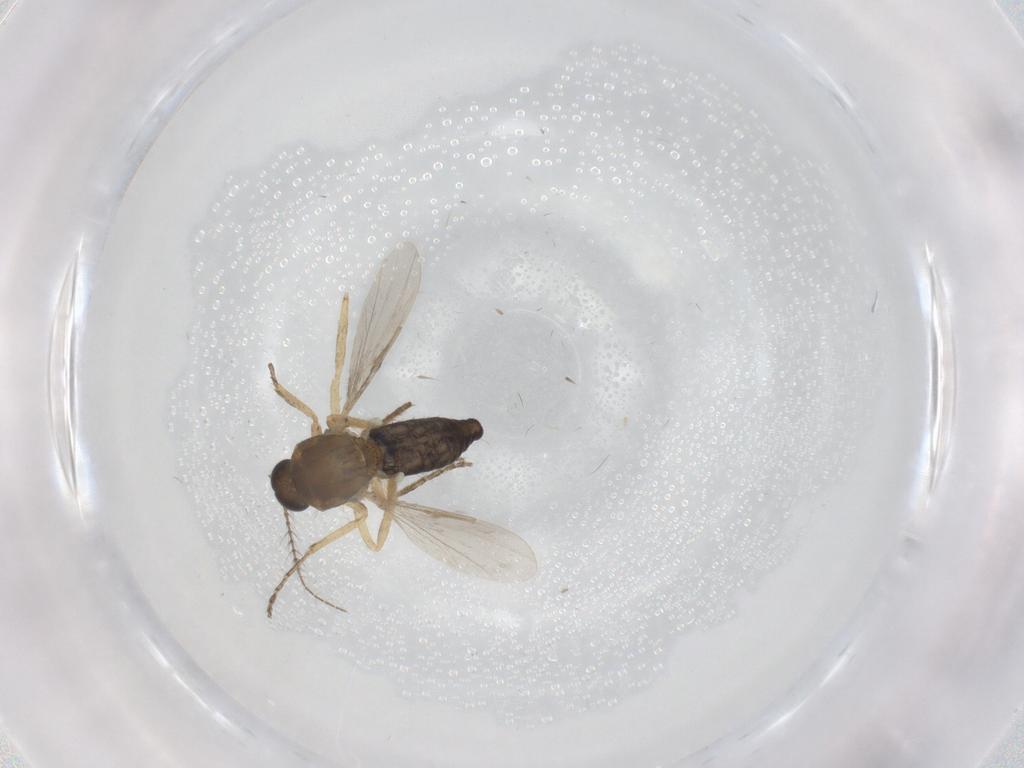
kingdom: Animalia
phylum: Arthropoda
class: Insecta
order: Diptera
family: Ceratopogonidae
